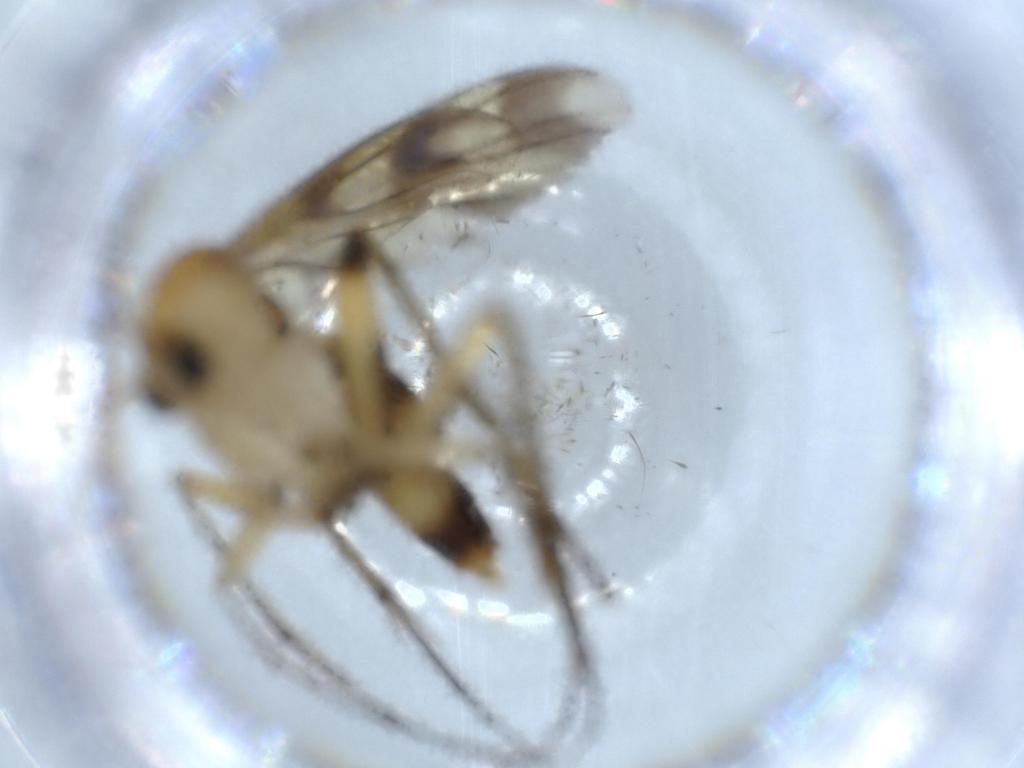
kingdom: Animalia
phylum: Arthropoda
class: Insecta
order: Diptera
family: Mycetophilidae
